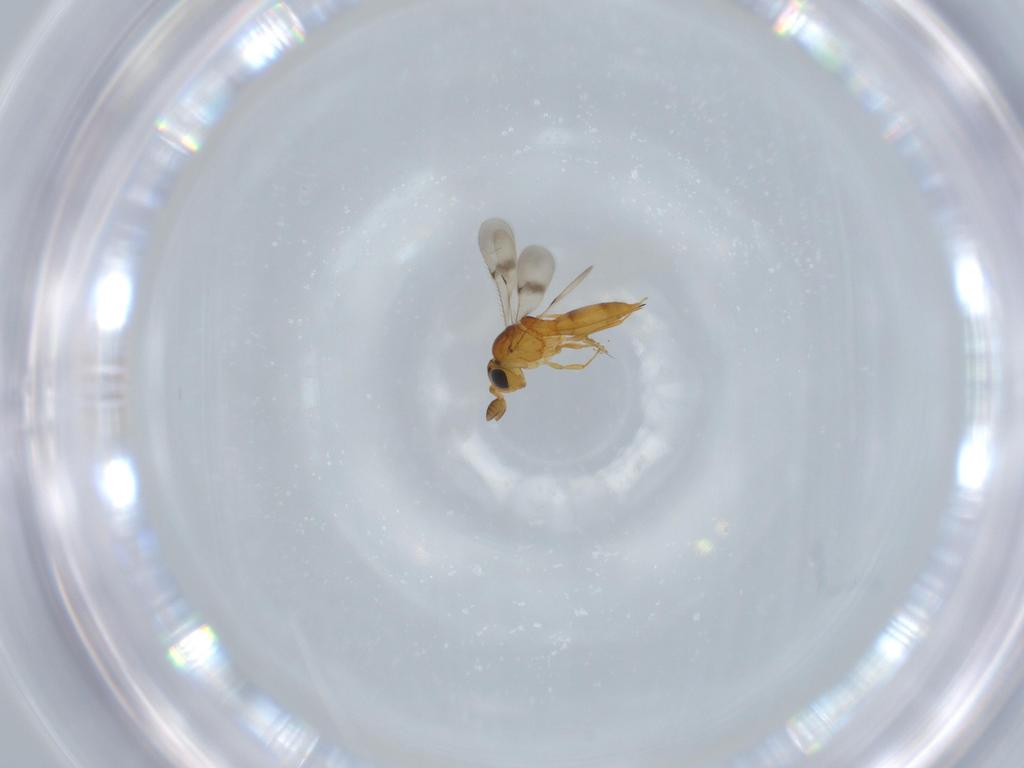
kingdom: Animalia
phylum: Arthropoda
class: Insecta
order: Hymenoptera
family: Scelionidae
